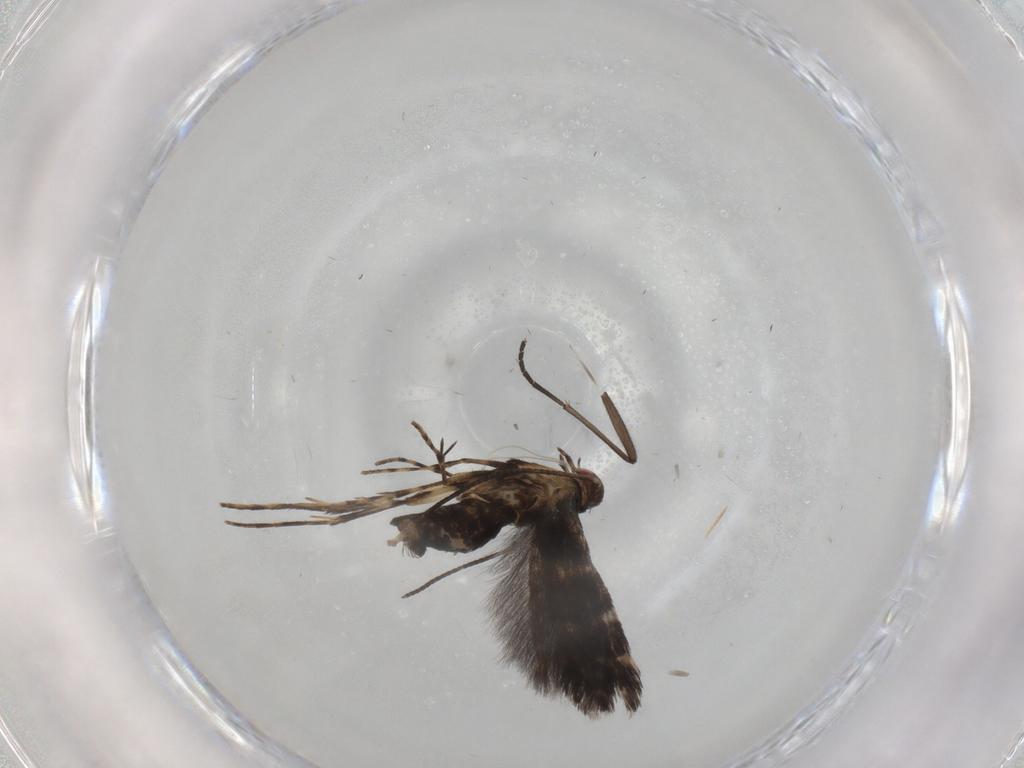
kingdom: Animalia
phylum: Arthropoda
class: Insecta
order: Lepidoptera
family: Gracillariidae
